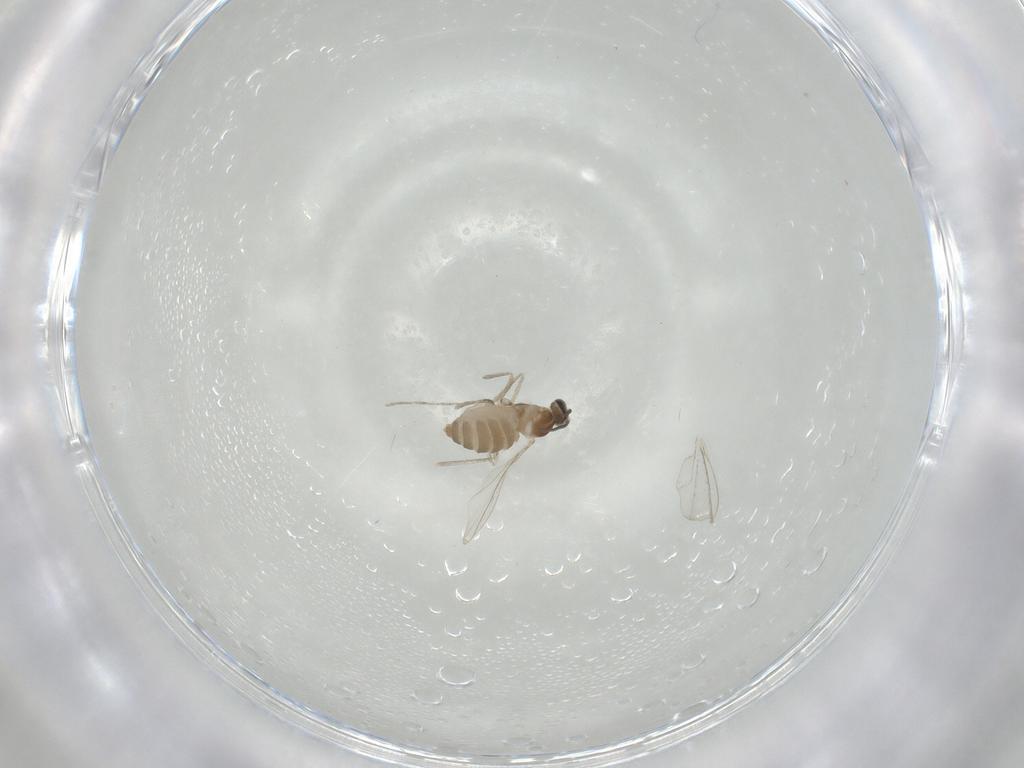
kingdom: Animalia
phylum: Arthropoda
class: Insecta
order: Diptera
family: Cecidomyiidae
